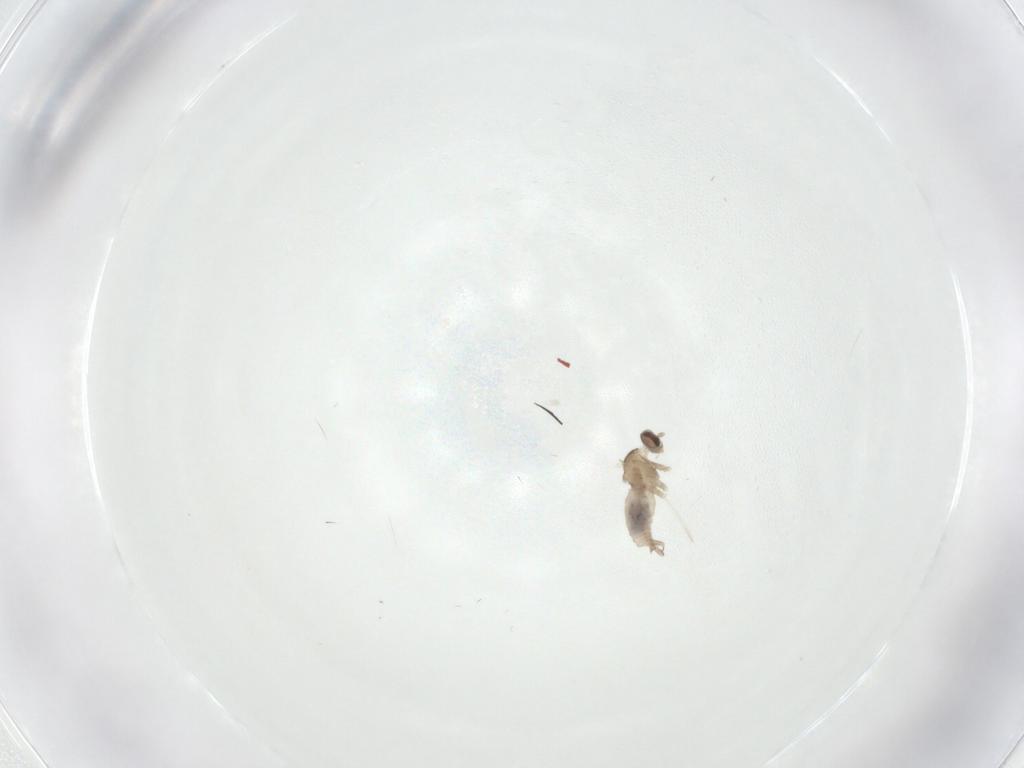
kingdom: Animalia
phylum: Arthropoda
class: Insecta
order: Diptera
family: Cecidomyiidae
